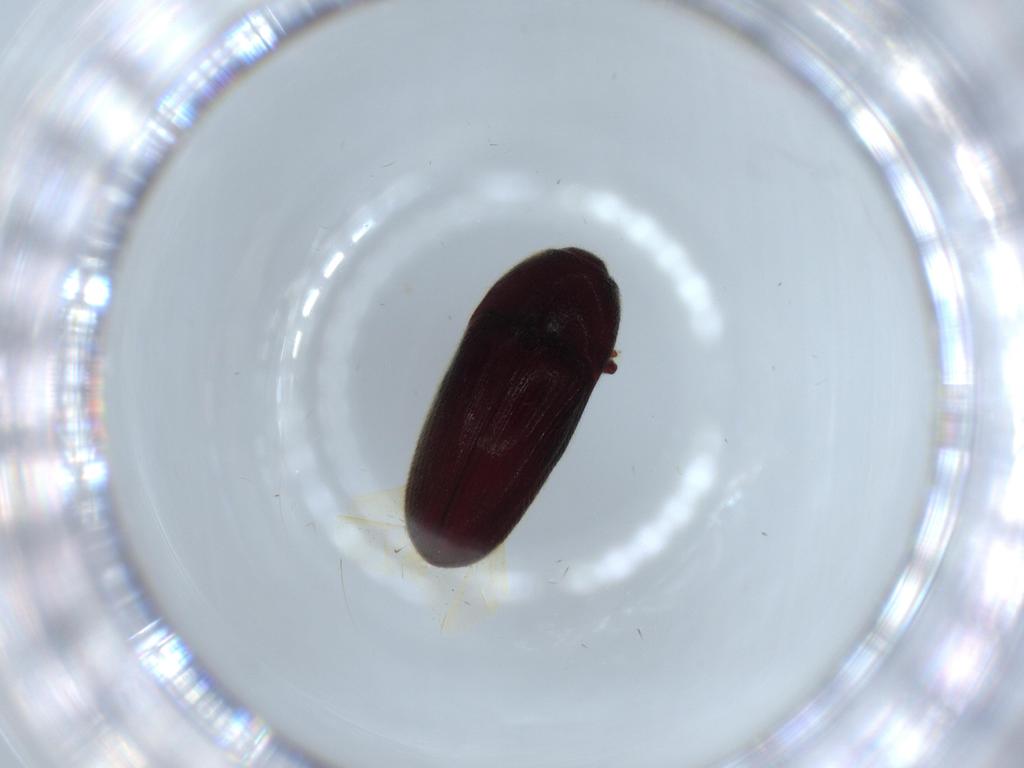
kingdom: Animalia
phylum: Arthropoda
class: Insecta
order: Coleoptera
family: Throscidae
